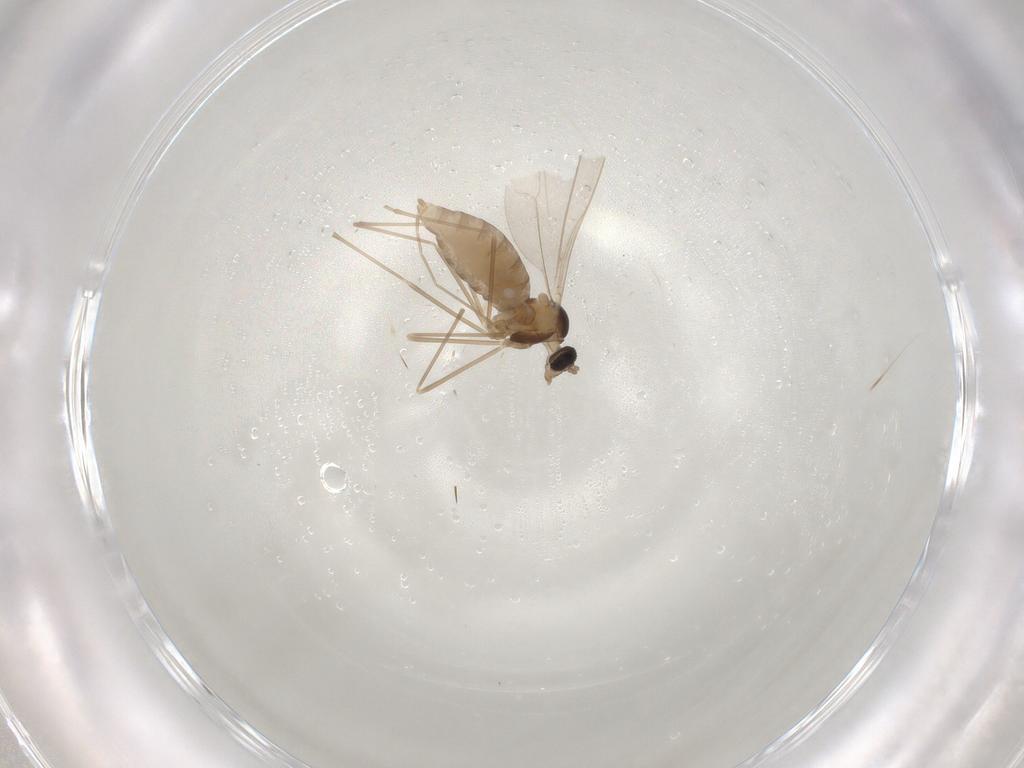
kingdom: Animalia
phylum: Arthropoda
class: Insecta
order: Diptera
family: Cecidomyiidae
